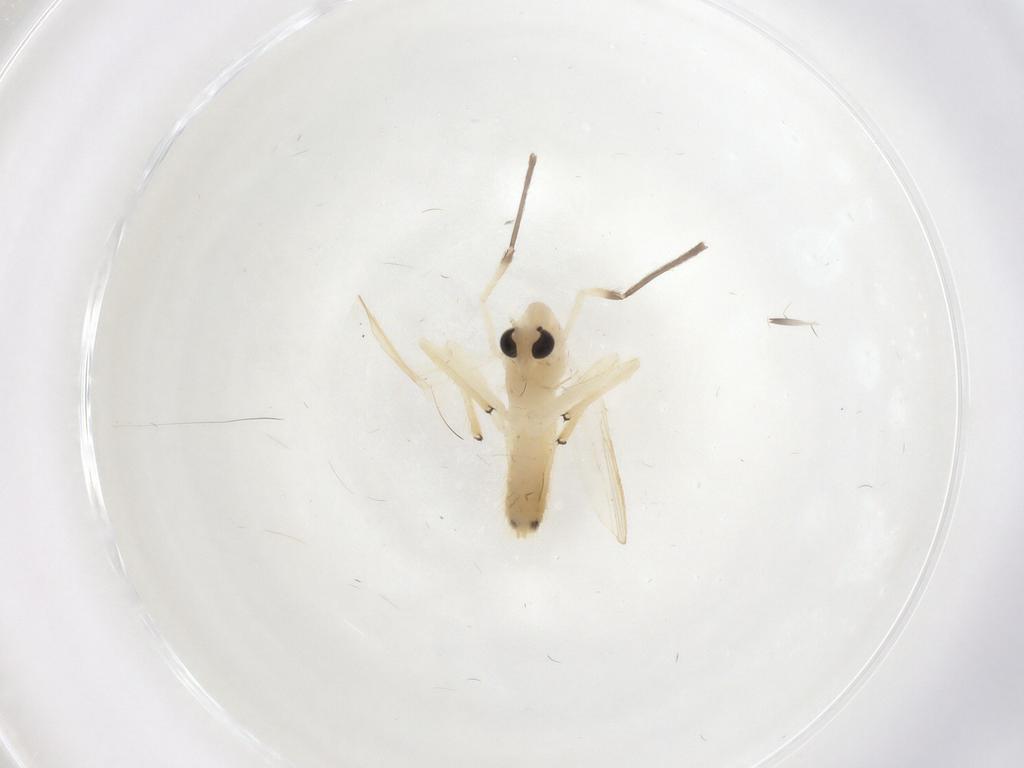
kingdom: Animalia
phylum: Arthropoda
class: Insecta
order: Diptera
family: Chironomidae
